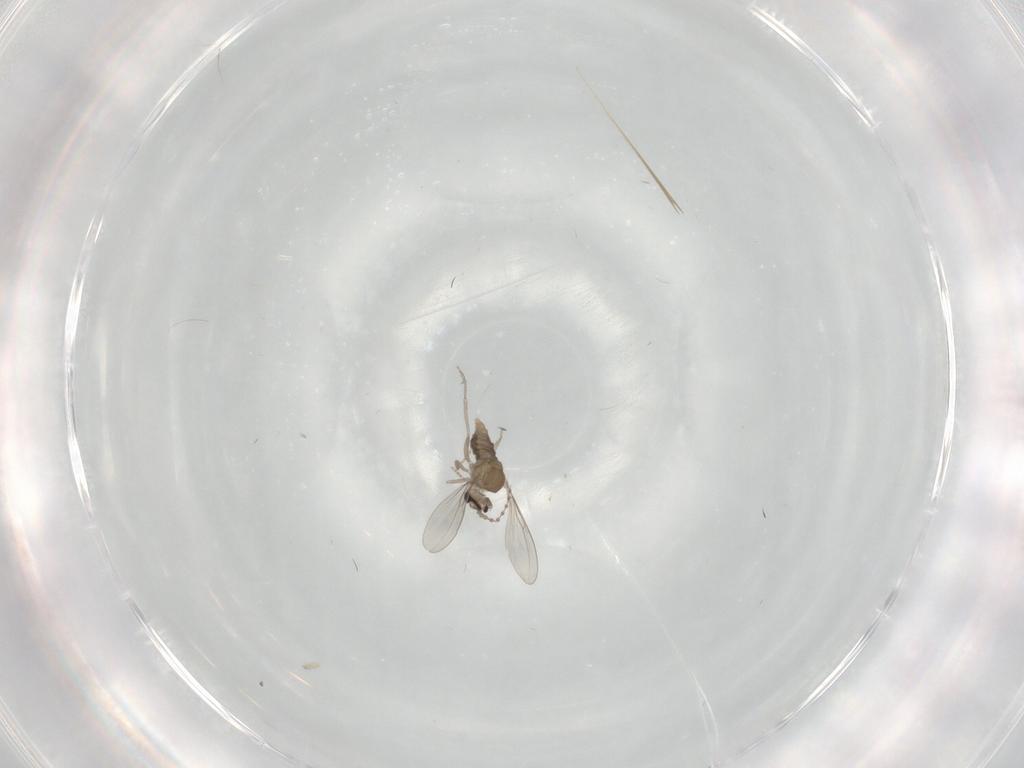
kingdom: Animalia
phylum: Arthropoda
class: Insecta
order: Diptera
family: Cecidomyiidae
